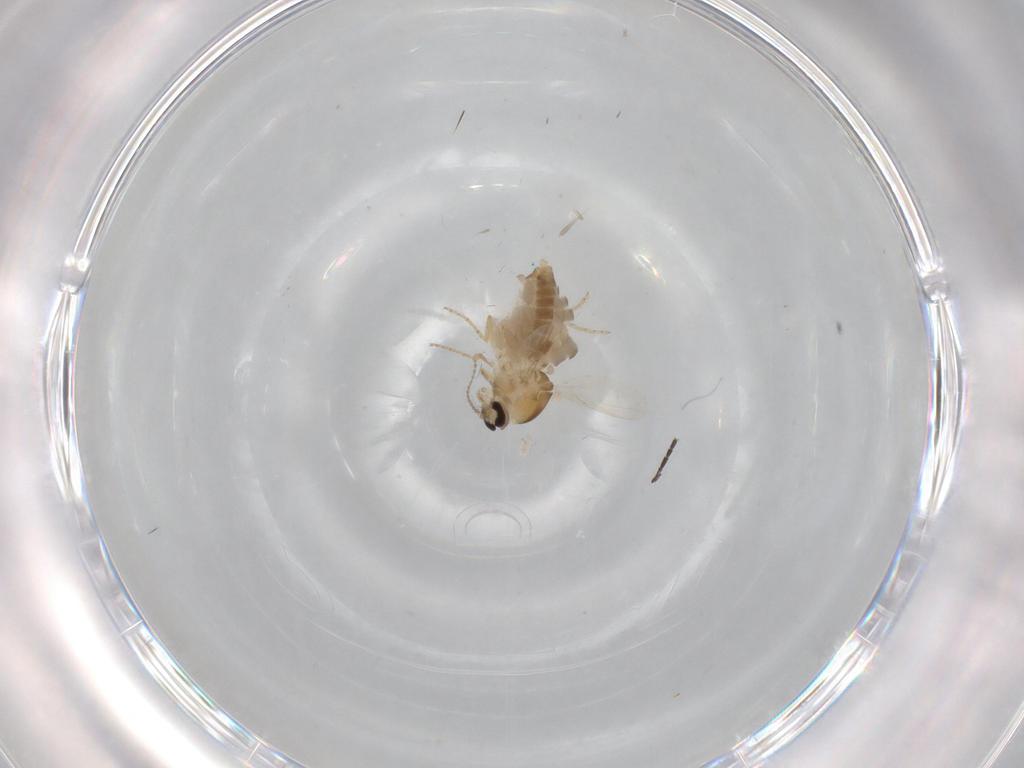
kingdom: Animalia
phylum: Arthropoda
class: Insecta
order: Diptera
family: Ceratopogonidae
